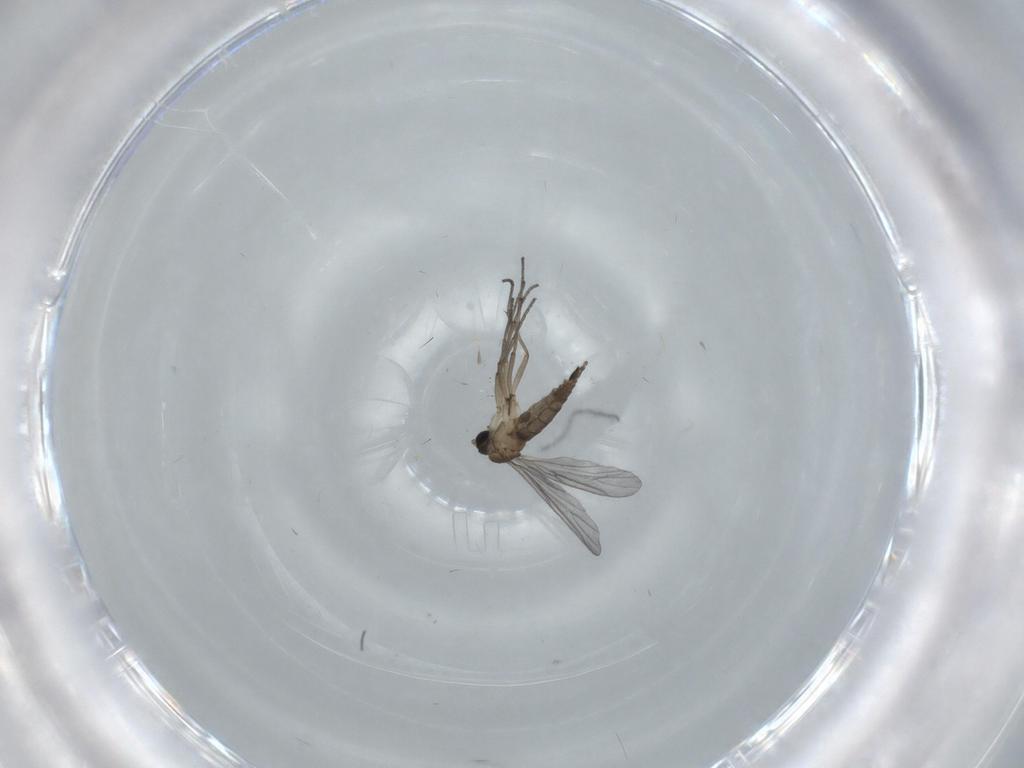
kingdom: Animalia
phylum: Arthropoda
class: Insecta
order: Diptera
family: Sciaridae
